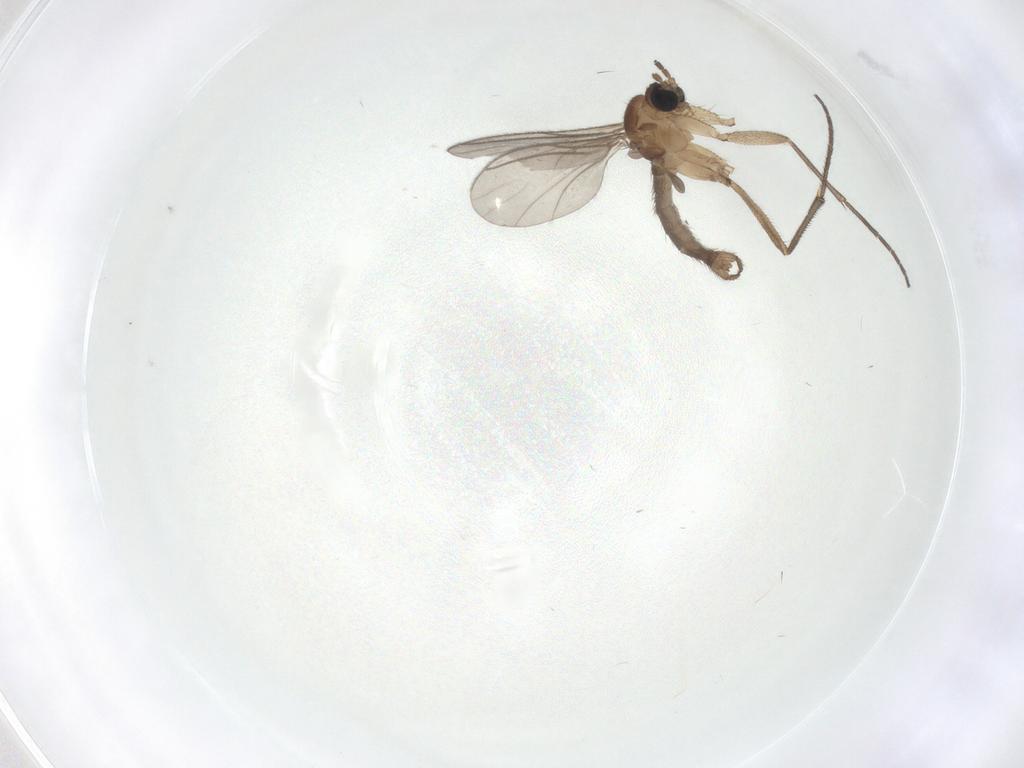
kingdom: Animalia
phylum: Arthropoda
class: Insecta
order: Diptera
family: Sciaridae
